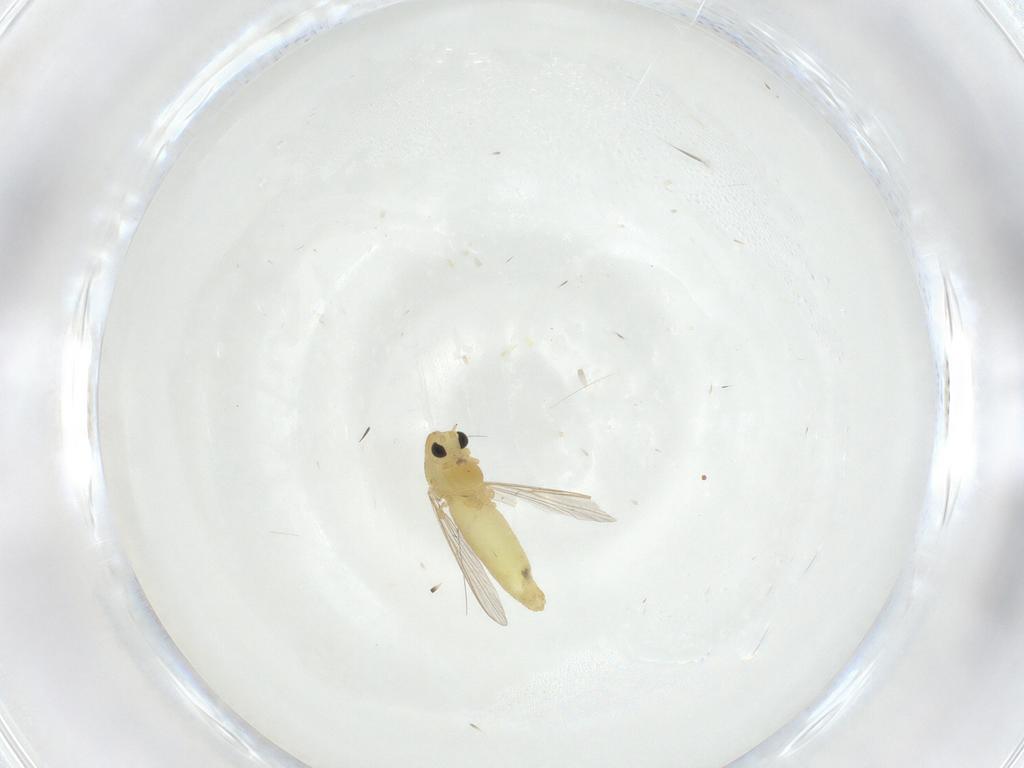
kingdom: Animalia
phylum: Arthropoda
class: Insecta
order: Diptera
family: Chironomidae
